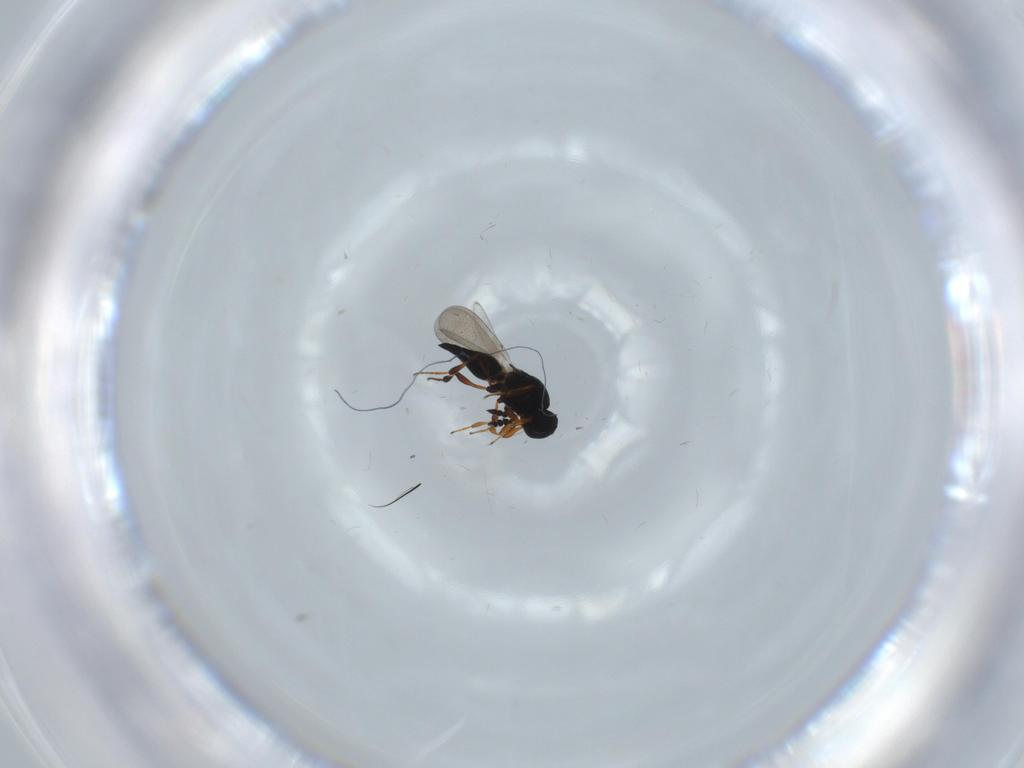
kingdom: Animalia
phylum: Arthropoda
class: Insecta
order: Hymenoptera
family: Platygastridae
